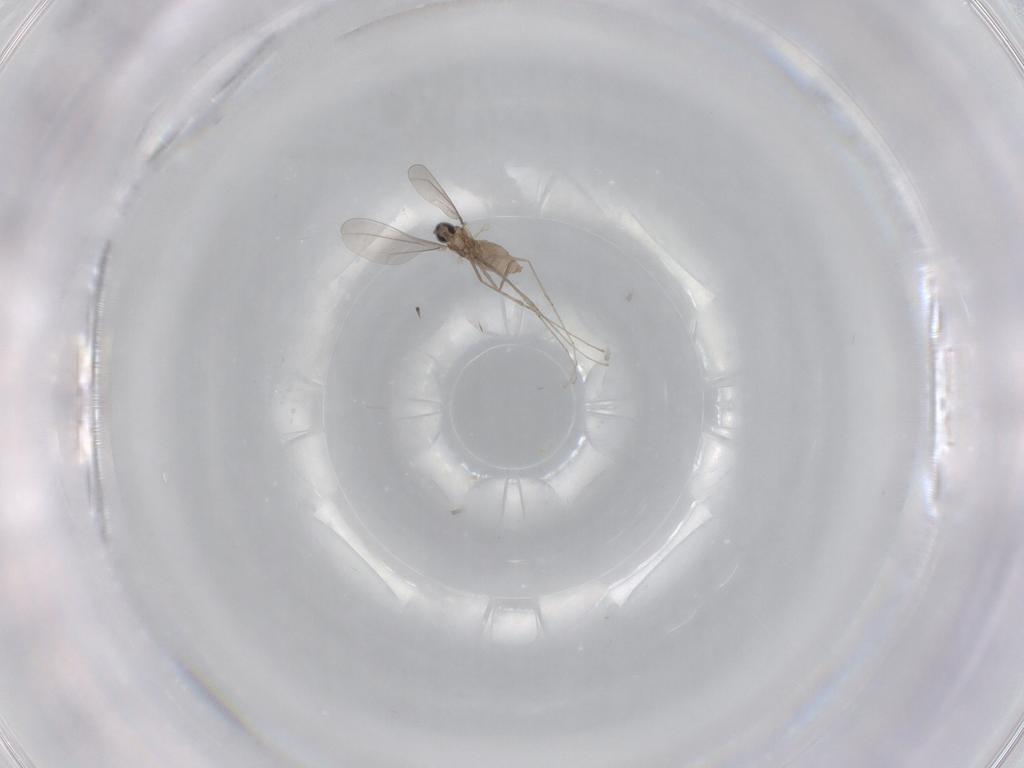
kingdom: Animalia
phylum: Arthropoda
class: Insecta
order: Diptera
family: Cecidomyiidae
